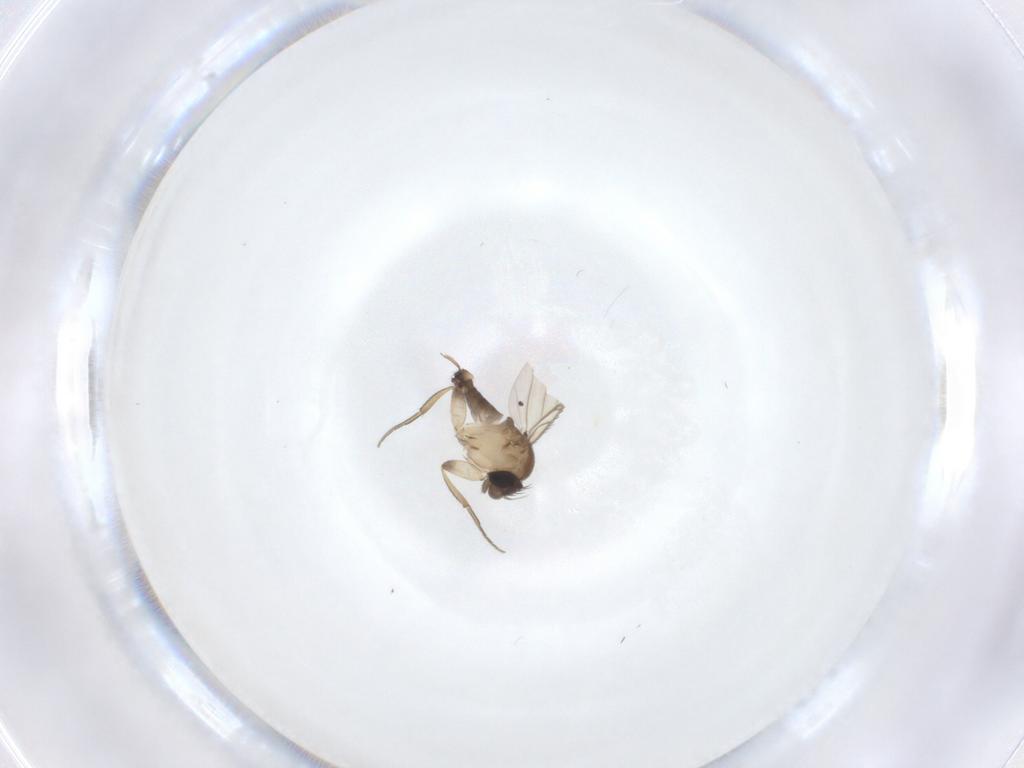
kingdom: Animalia
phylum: Arthropoda
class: Insecta
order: Diptera
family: Phoridae
